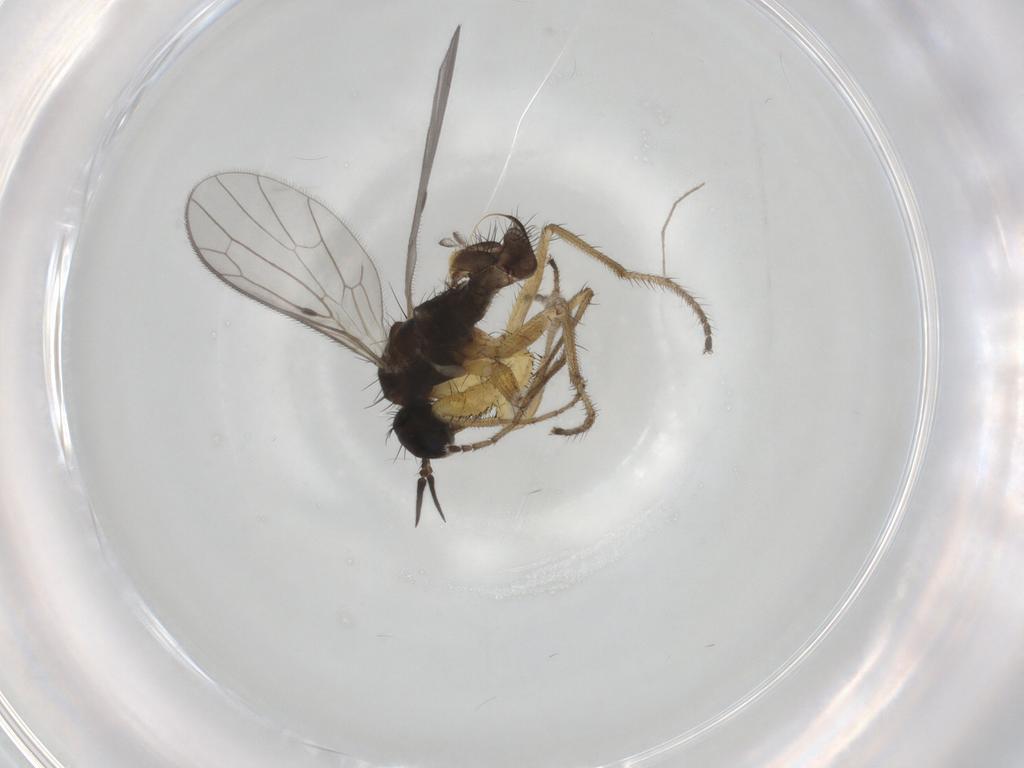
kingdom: Animalia
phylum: Arthropoda
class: Insecta
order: Diptera
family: Empididae
